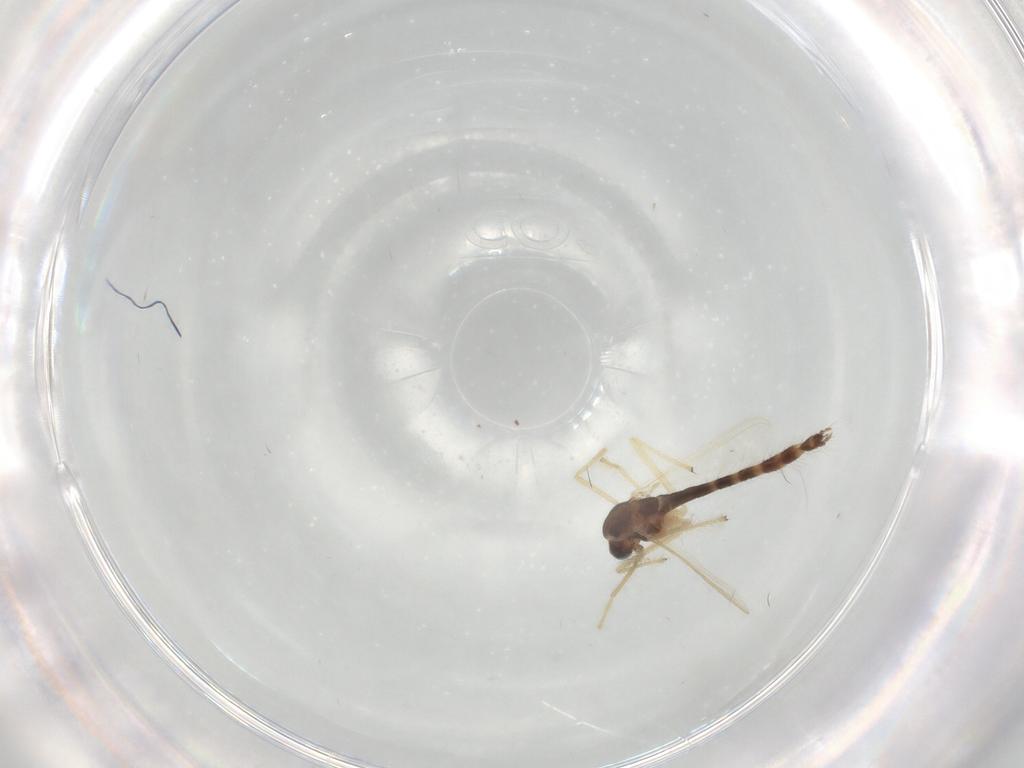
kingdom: Animalia
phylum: Arthropoda
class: Insecta
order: Diptera
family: Chironomidae
